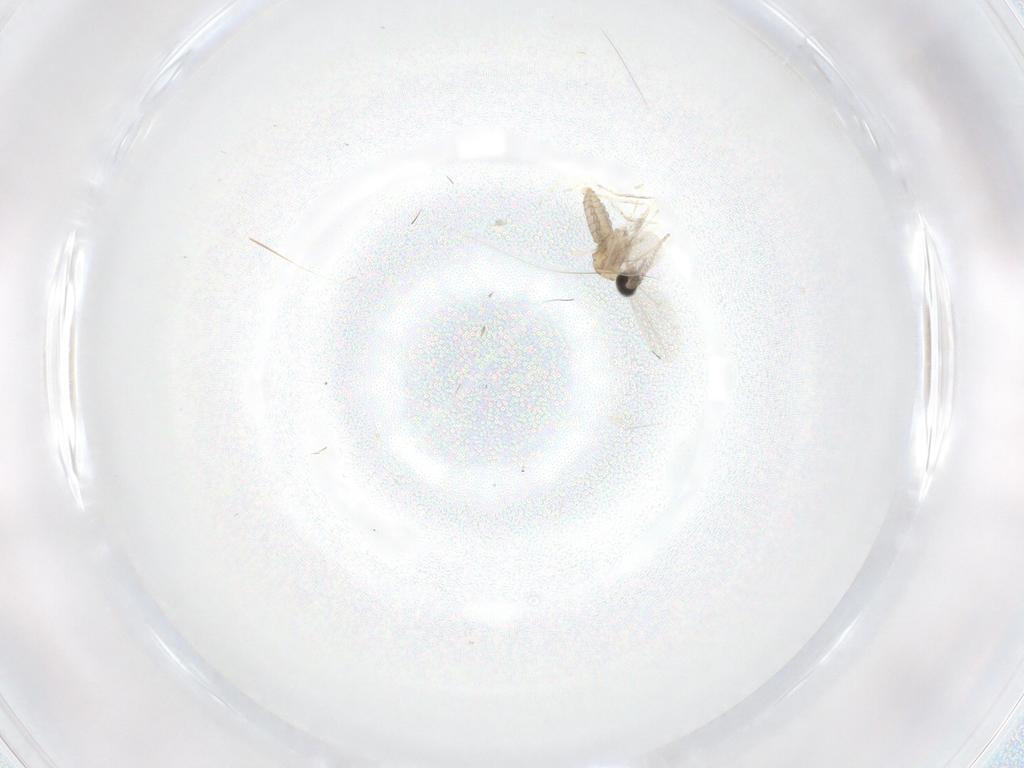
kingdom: Animalia
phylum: Arthropoda
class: Insecta
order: Diptera
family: Cecidomyiidae
